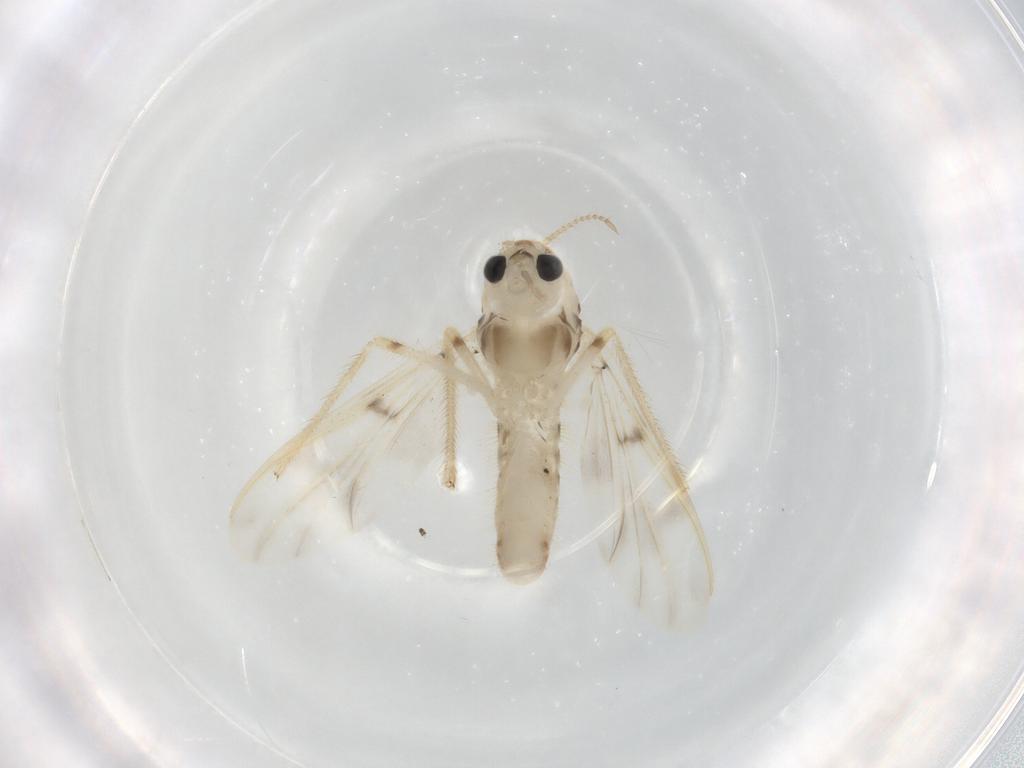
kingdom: Animalia
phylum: Arthropoda
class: Insecta
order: Diptera
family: Chironomidae
